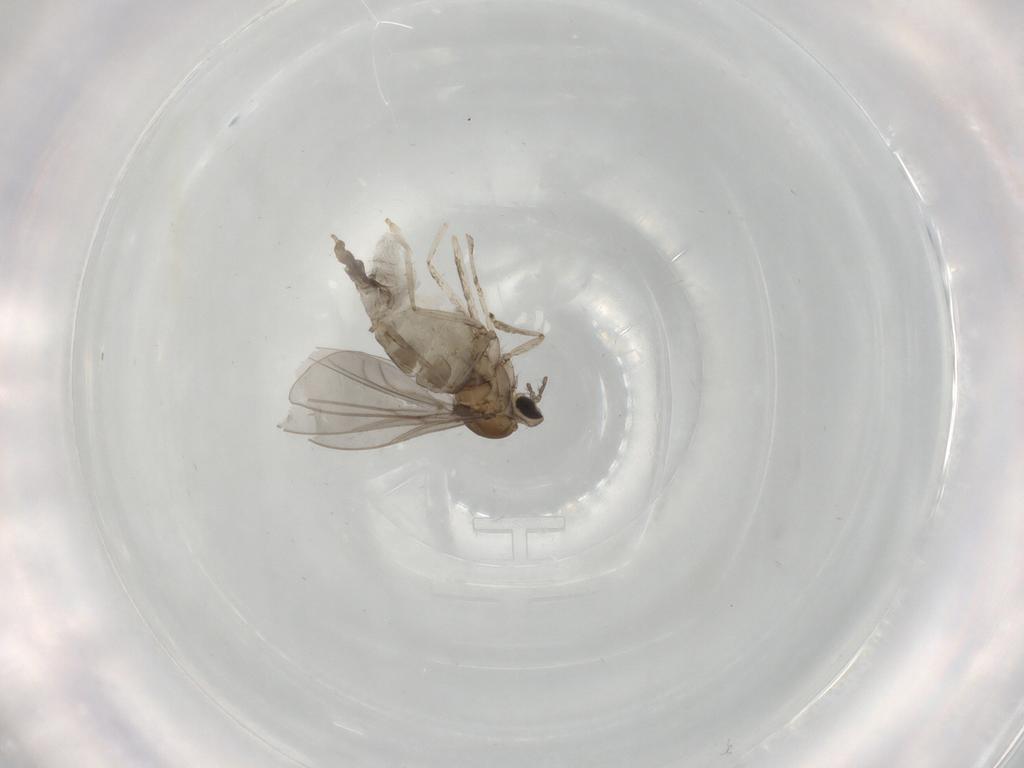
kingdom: Animalia
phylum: Arthropoda
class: Insecta
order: Diptera
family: Cecidomyiidae
